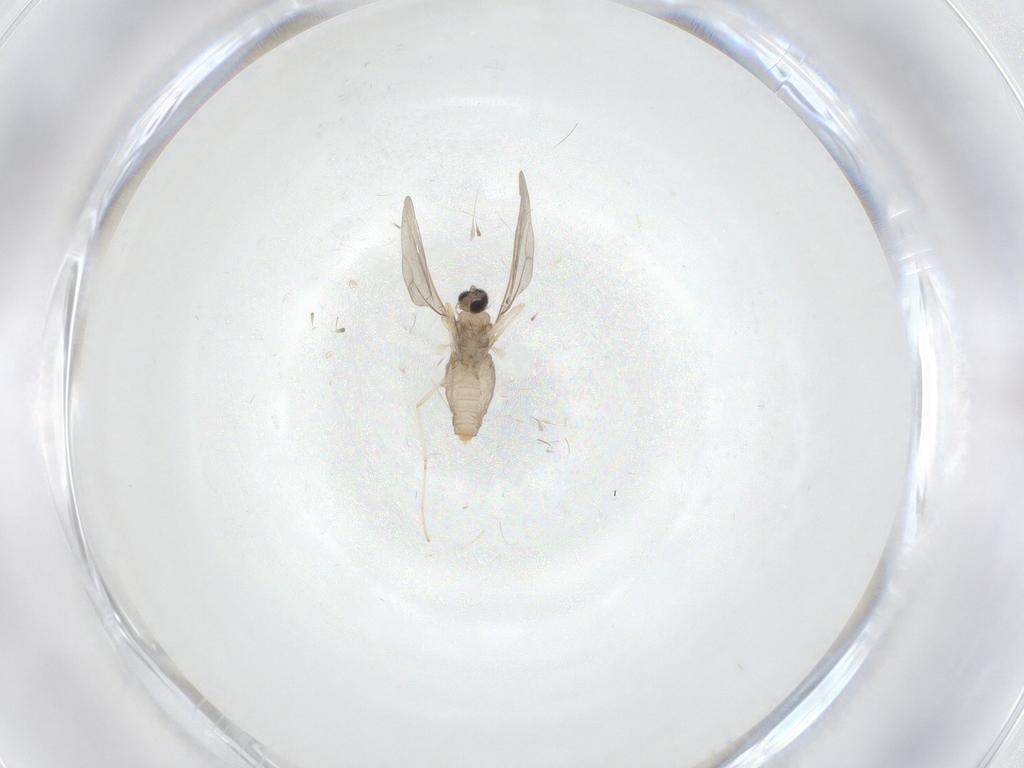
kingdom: Animalia
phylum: Arthropoda
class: Insecta
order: Diptera
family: Cecidomyiidae
